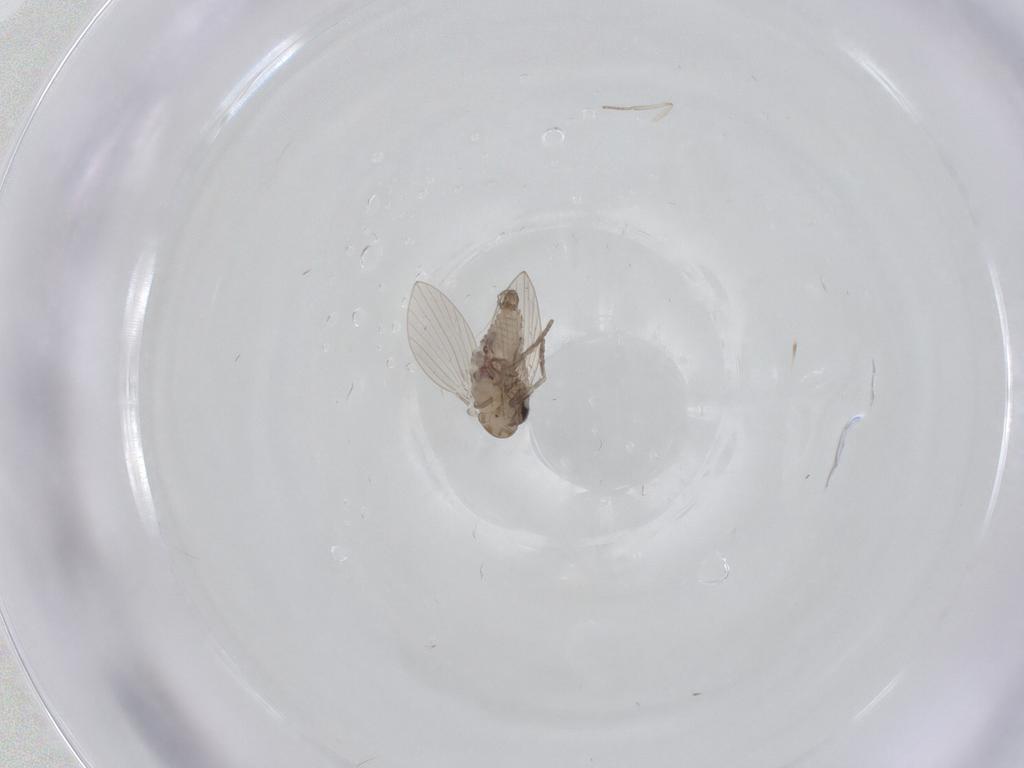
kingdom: Animalia
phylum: Arthropoda
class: Insecta
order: Diptera
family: Psychodidae
